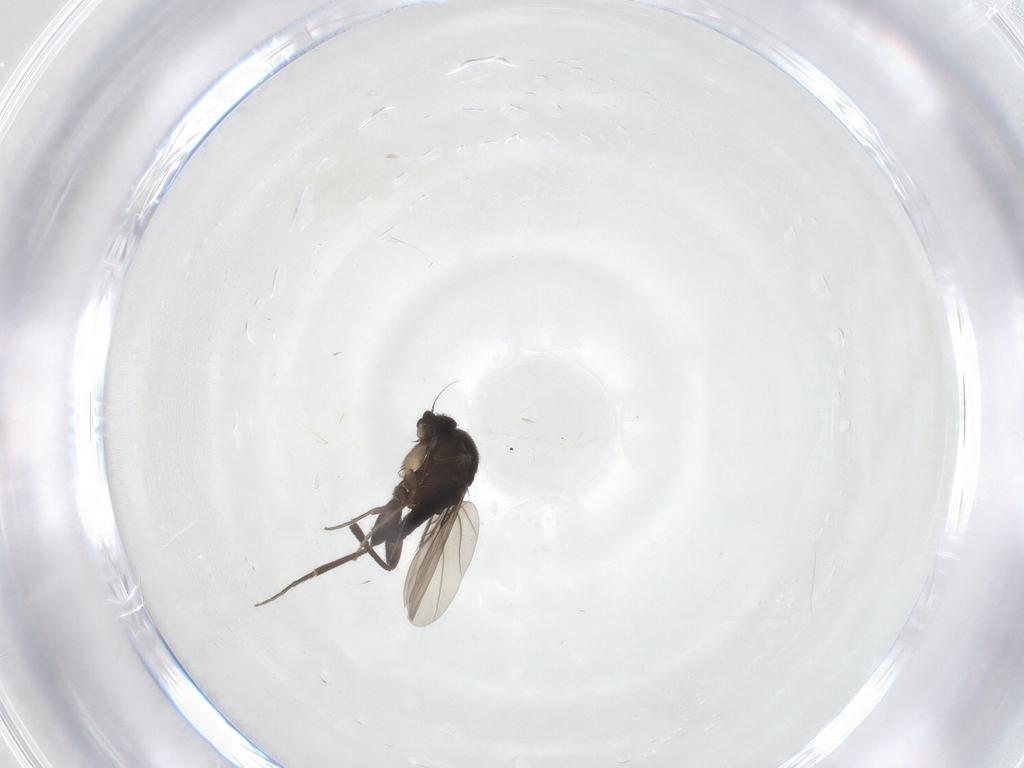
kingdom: Animalia
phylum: Arthropoda
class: Insecta
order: Diptera
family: Phoridae
